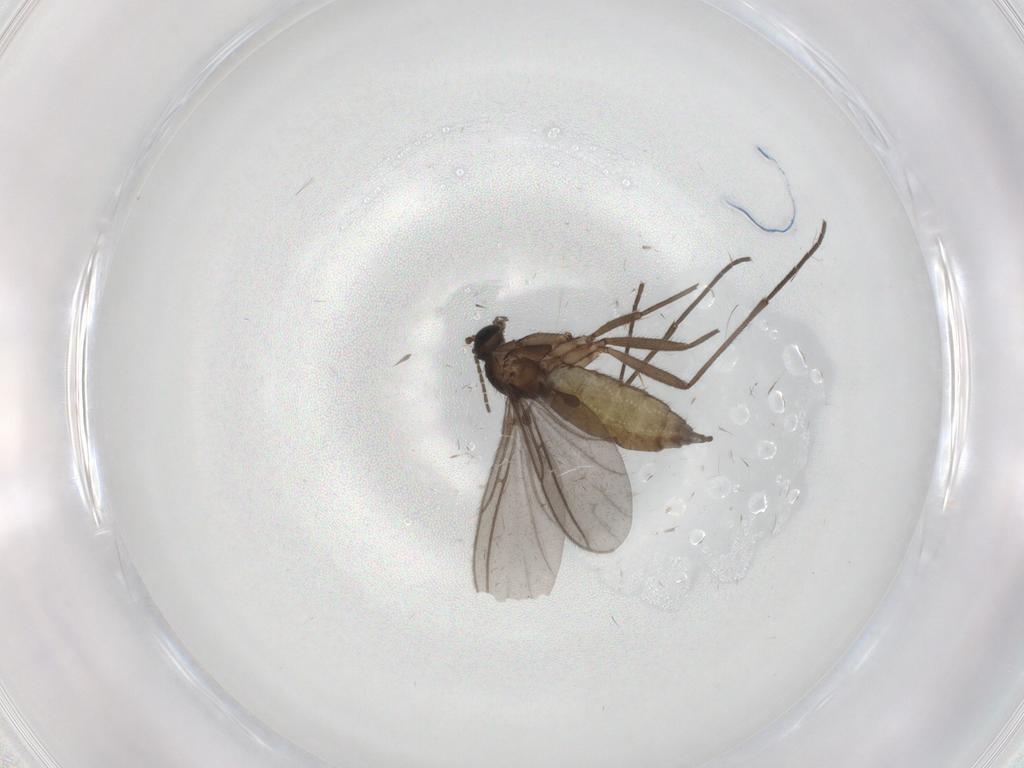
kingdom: Animalia
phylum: Arthropoda
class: Insecta
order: Diptera
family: Psychodidae
